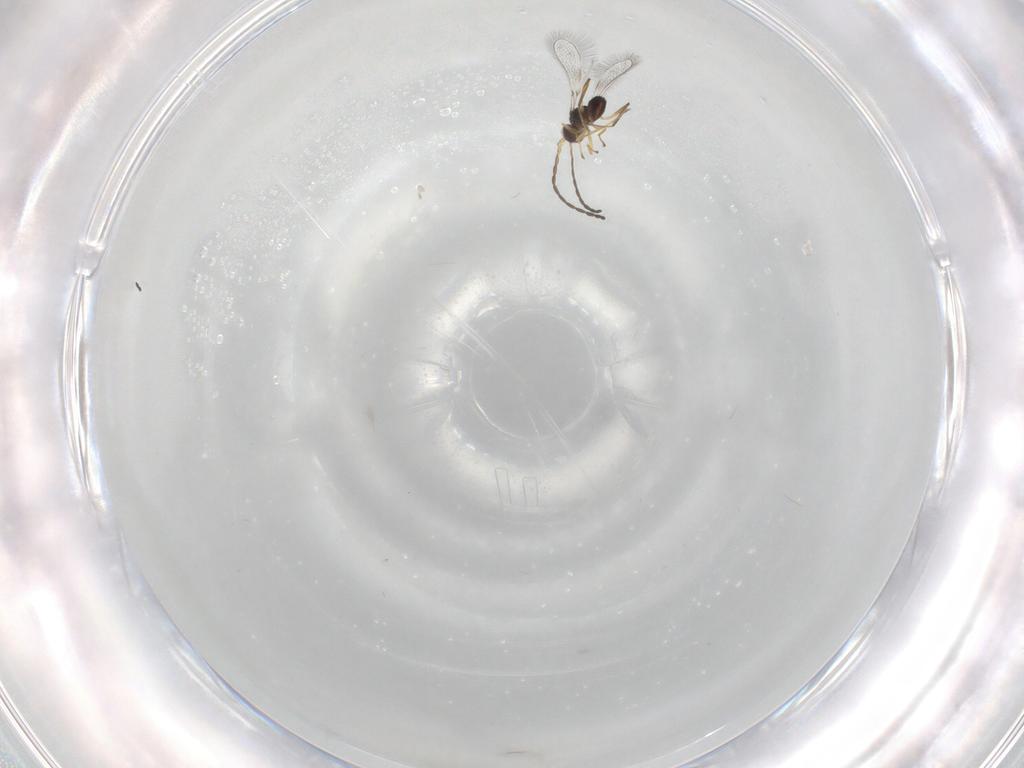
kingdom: Animalia
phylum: Arthropoda
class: Insecta
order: Hymenoptera
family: Mymaridae
